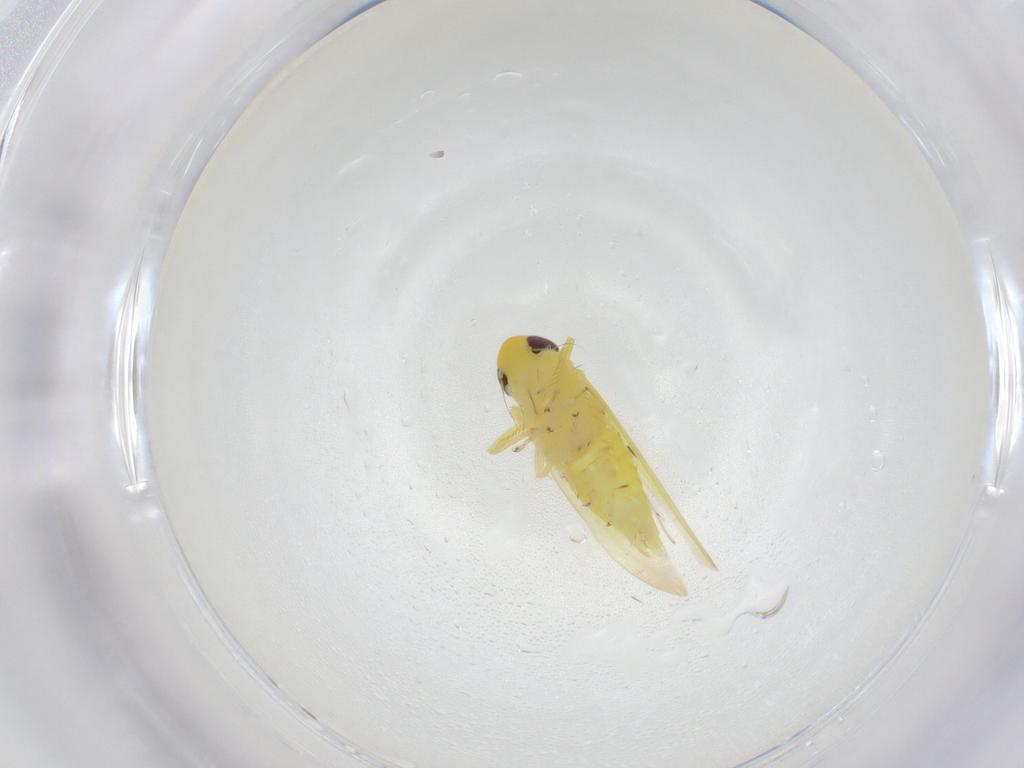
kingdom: Animalia
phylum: Arthropoda
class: Insecta
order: Hemiptera
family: Cicadellidae
